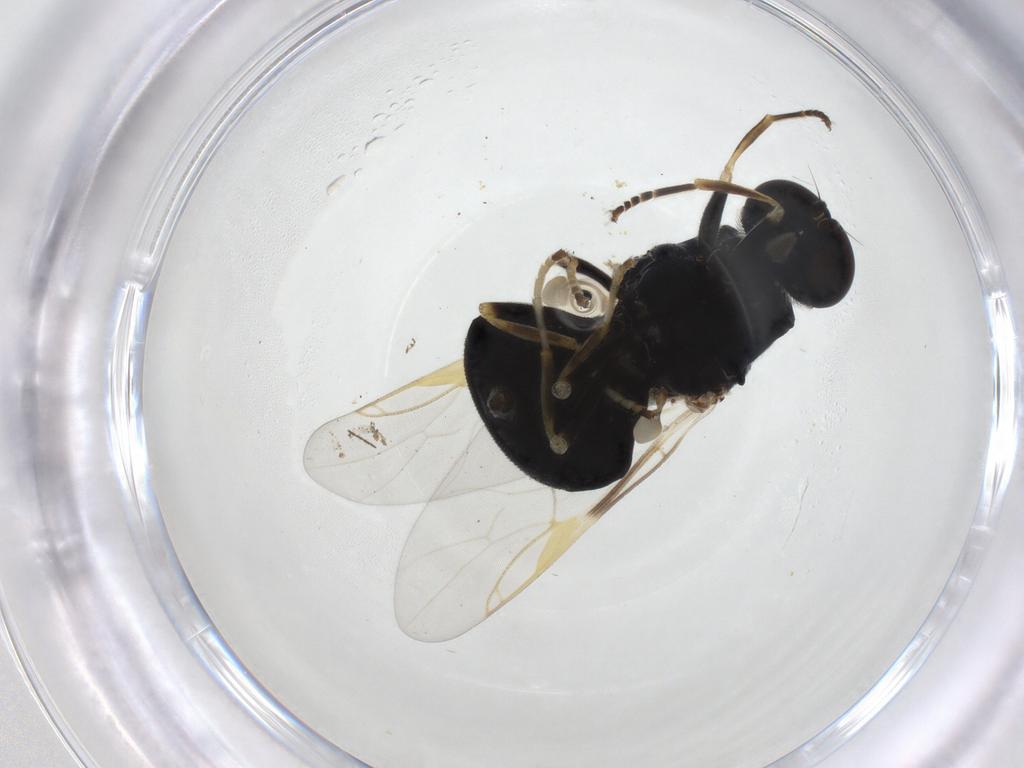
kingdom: Animalia
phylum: Arthropoda
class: Insecta
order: Diptera
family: Stratiomyidae
